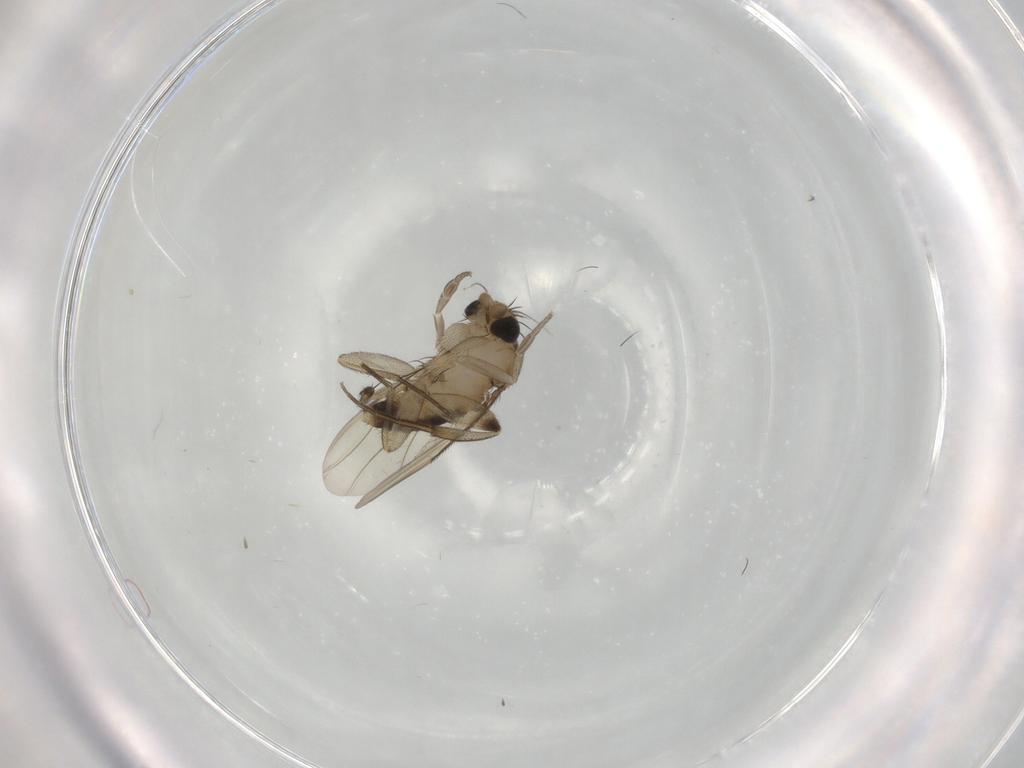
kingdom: Animalia
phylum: Arthropoda
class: Insecta
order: Diptera
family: Phoridae
